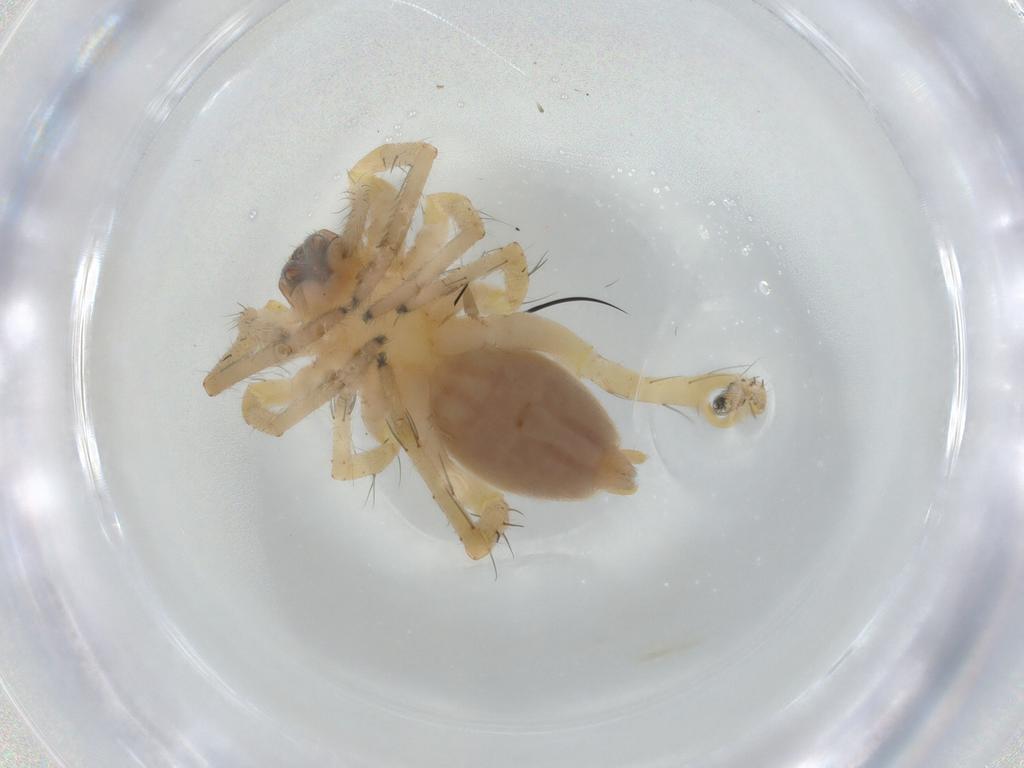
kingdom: Animalia
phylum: Arthropoda
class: Arachnida
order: Araneae
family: Anyphaenidae
